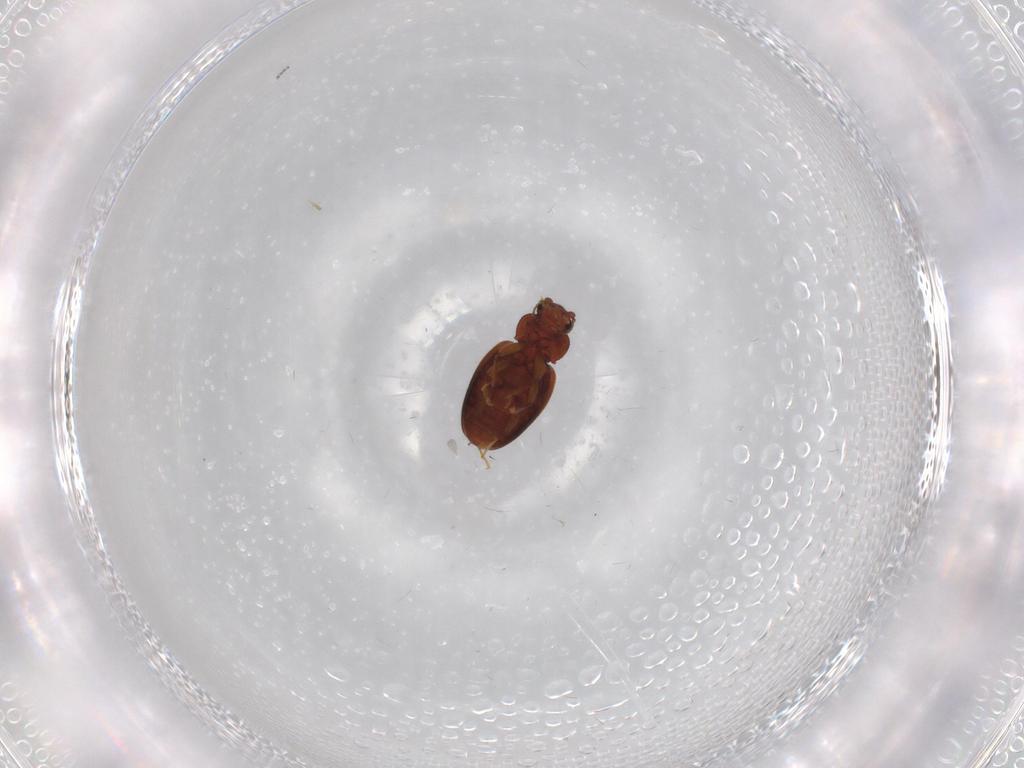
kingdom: Animalia
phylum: Arthropoda
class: Insecta
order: Coleoptera
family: Latridiidae
